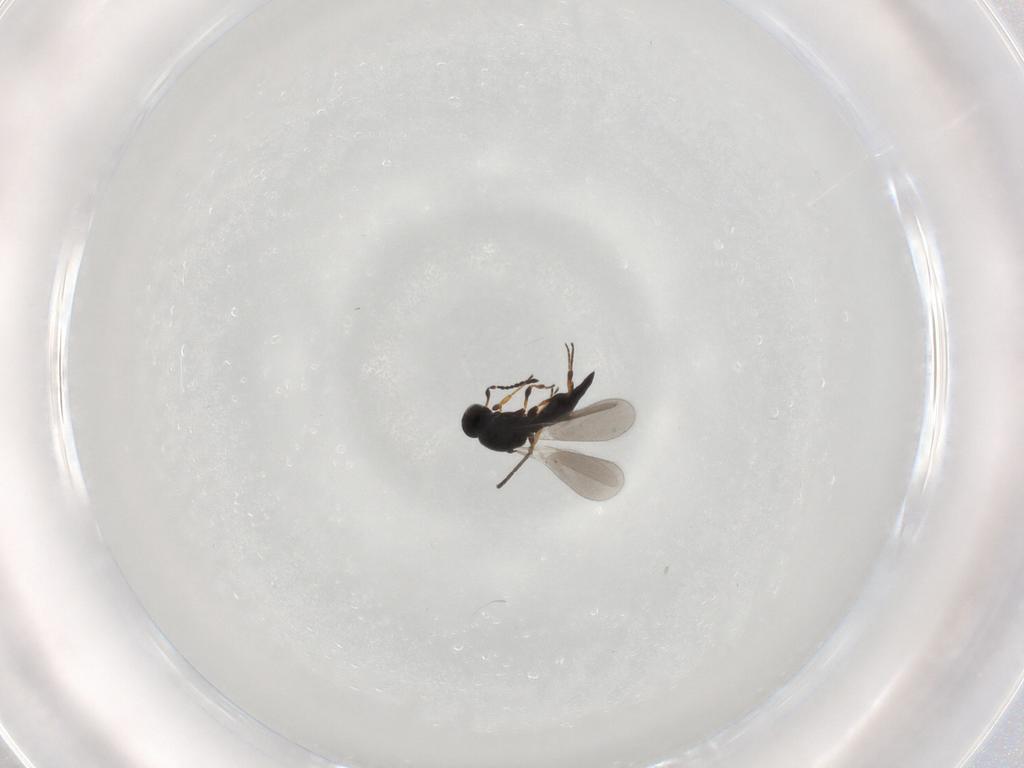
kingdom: Animalia
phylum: Arthropoda
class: Insecta
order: Hymenoptera
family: Platygastridae
